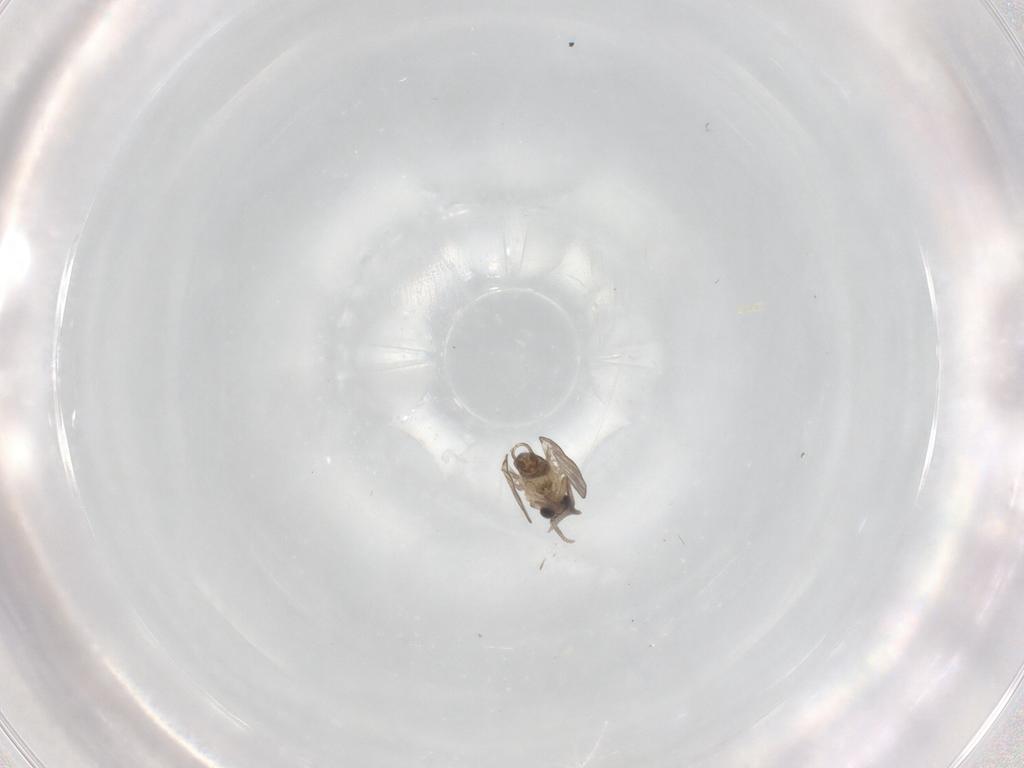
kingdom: Animalia
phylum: Arthropoda
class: Insecta
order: Diptera
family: Psychodidae
